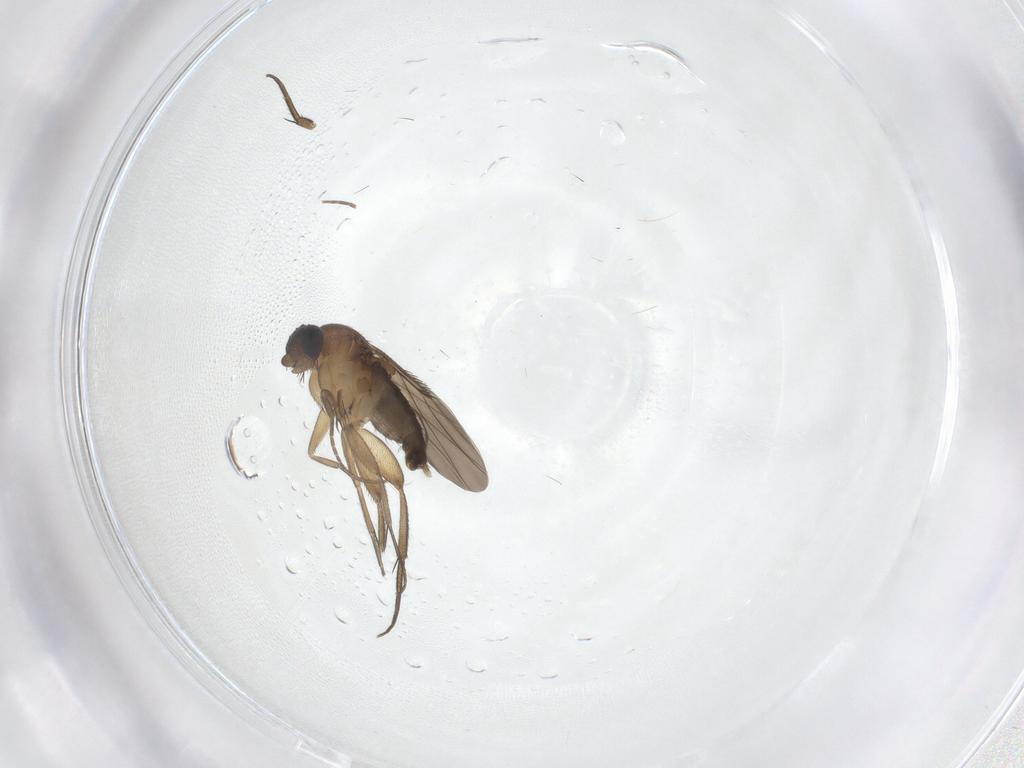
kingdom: Animalia
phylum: Arthropoda
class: Insecta
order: Diptera
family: Phoridae
